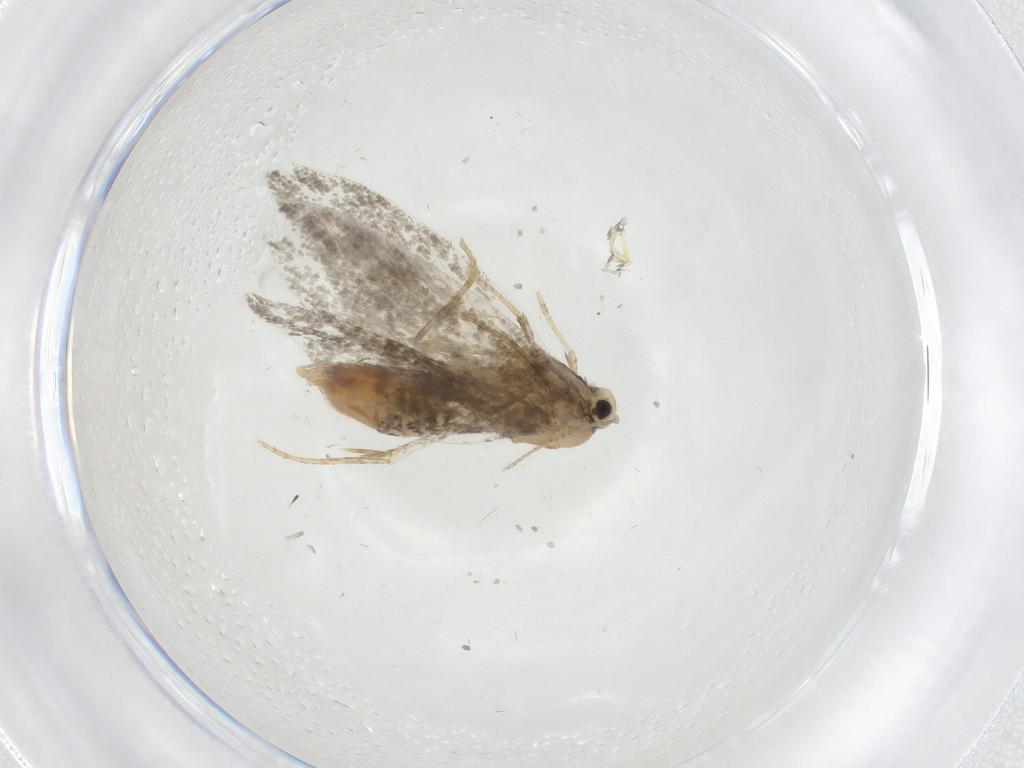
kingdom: Animalia
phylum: Arthropoda
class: Insecta
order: Lepidoptera
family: Psychidae
